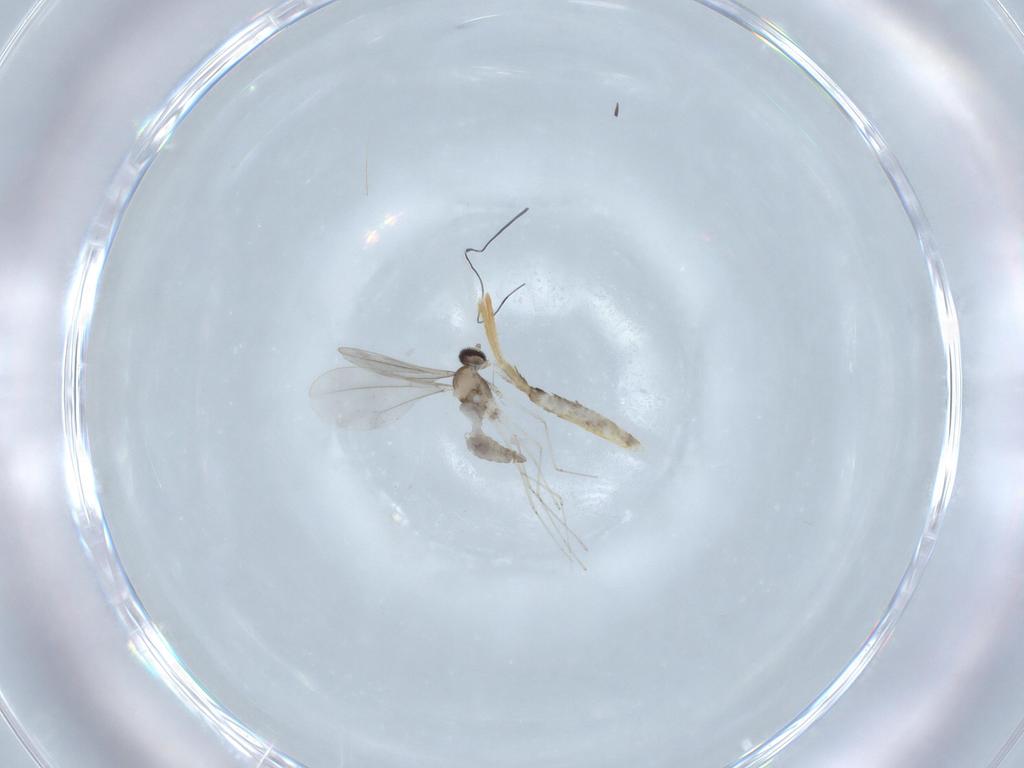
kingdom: Animalia
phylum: Arthropoda
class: Insecta
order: Diptera
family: Cecidomyiidae
